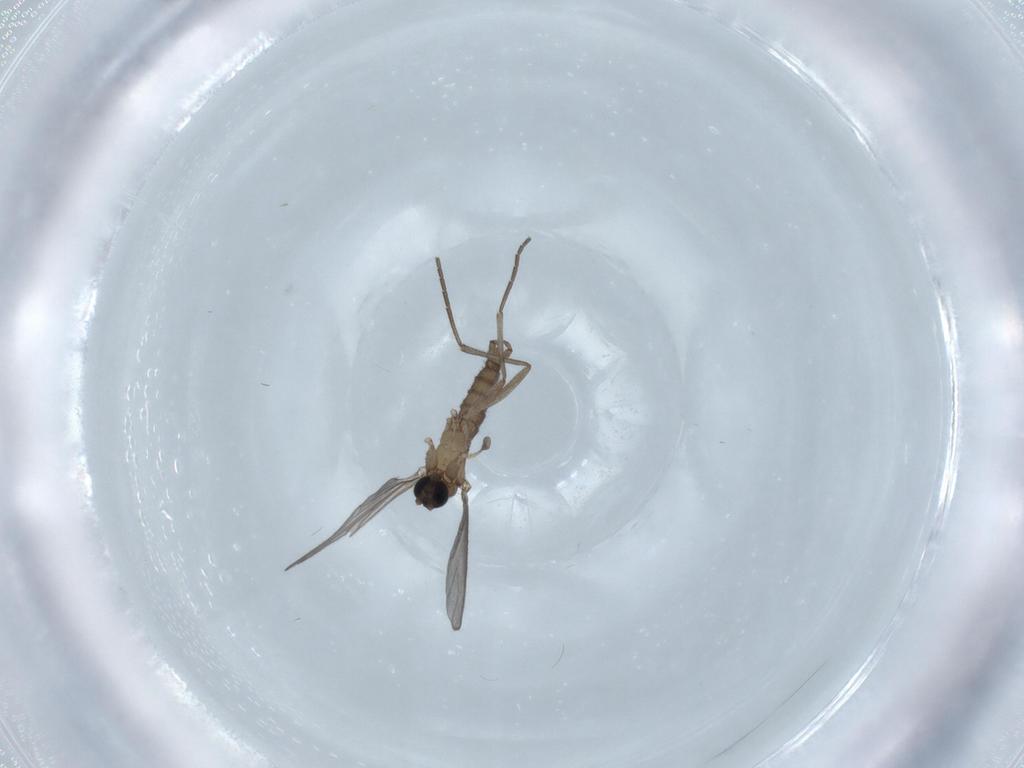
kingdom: Animalia
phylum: Arthropoda
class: Insecta
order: Diptera
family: Sciaridae
